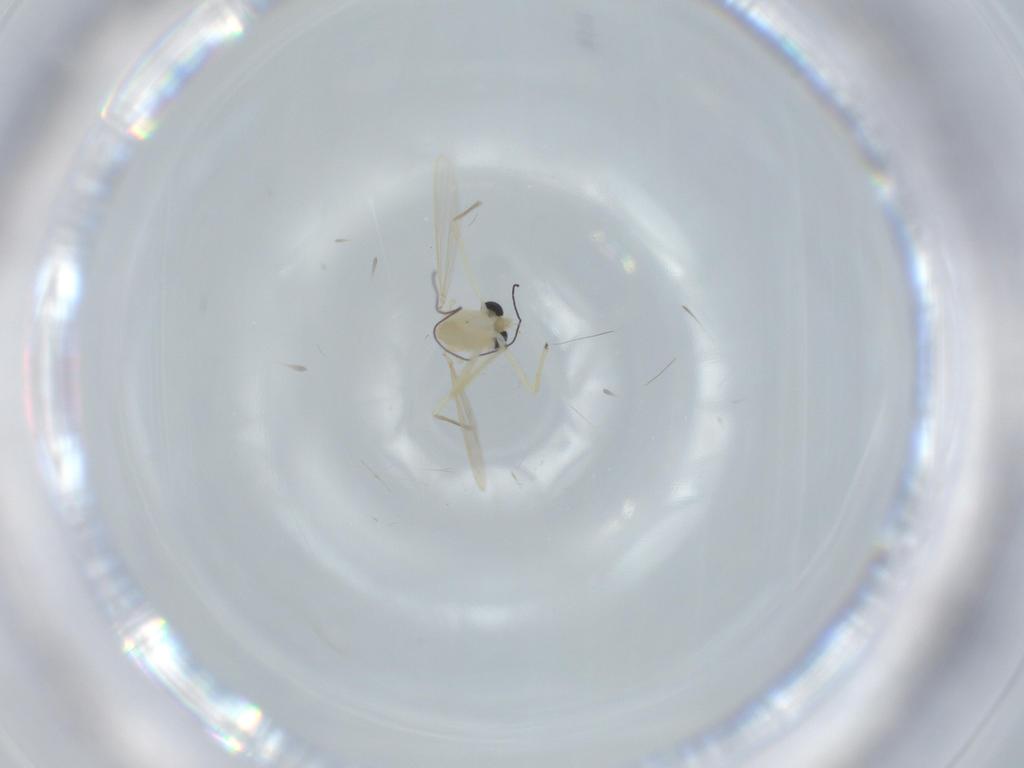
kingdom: Animalia
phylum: Arthropoda
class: Insecta
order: Diptera
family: Chironomidae
